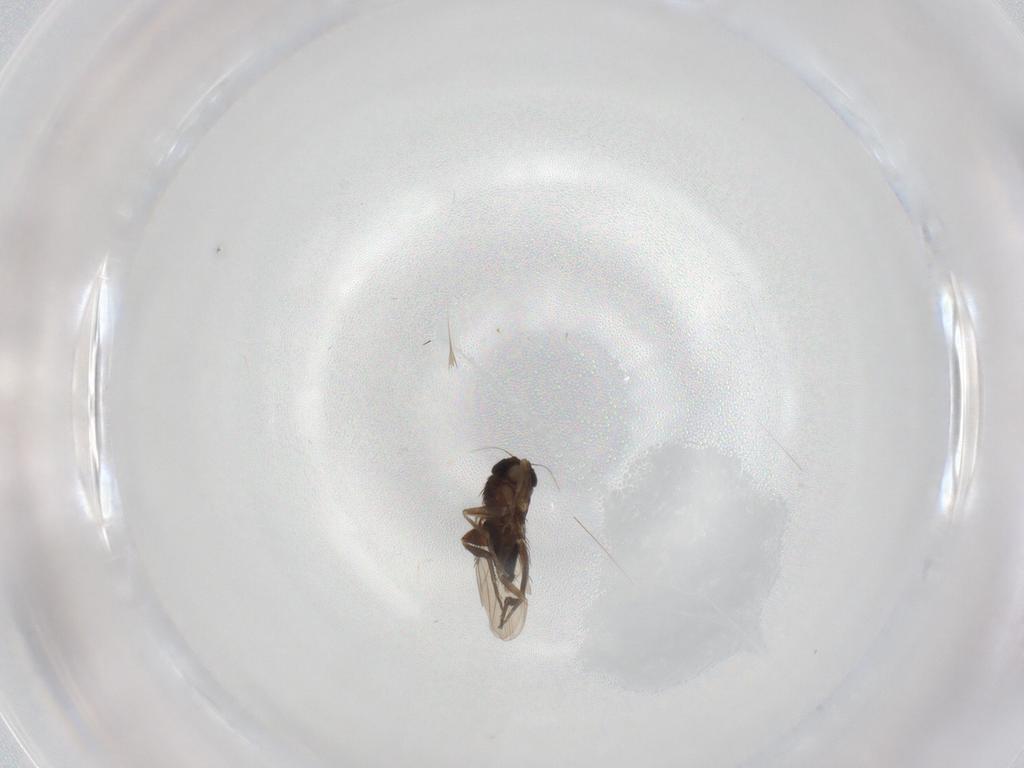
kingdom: Animalia
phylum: Arthropoda
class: Insecta
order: Diptera
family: Phoridae
